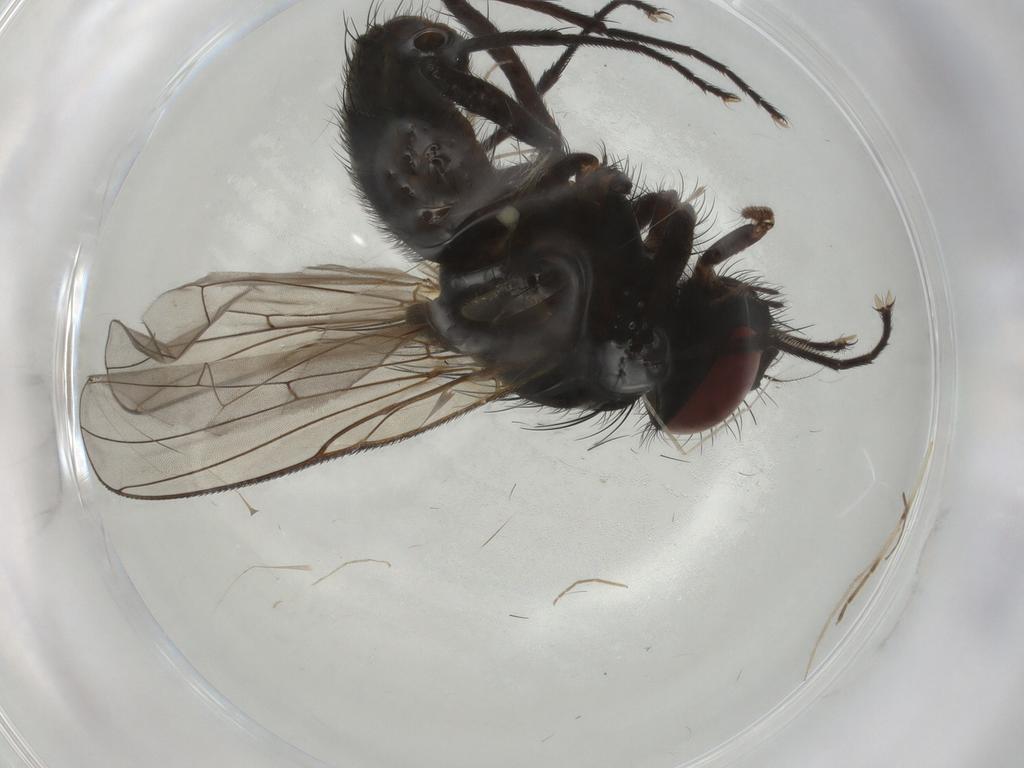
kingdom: Animalia
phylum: Arthropoda
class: Insecta
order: Diptera
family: Muscidae
